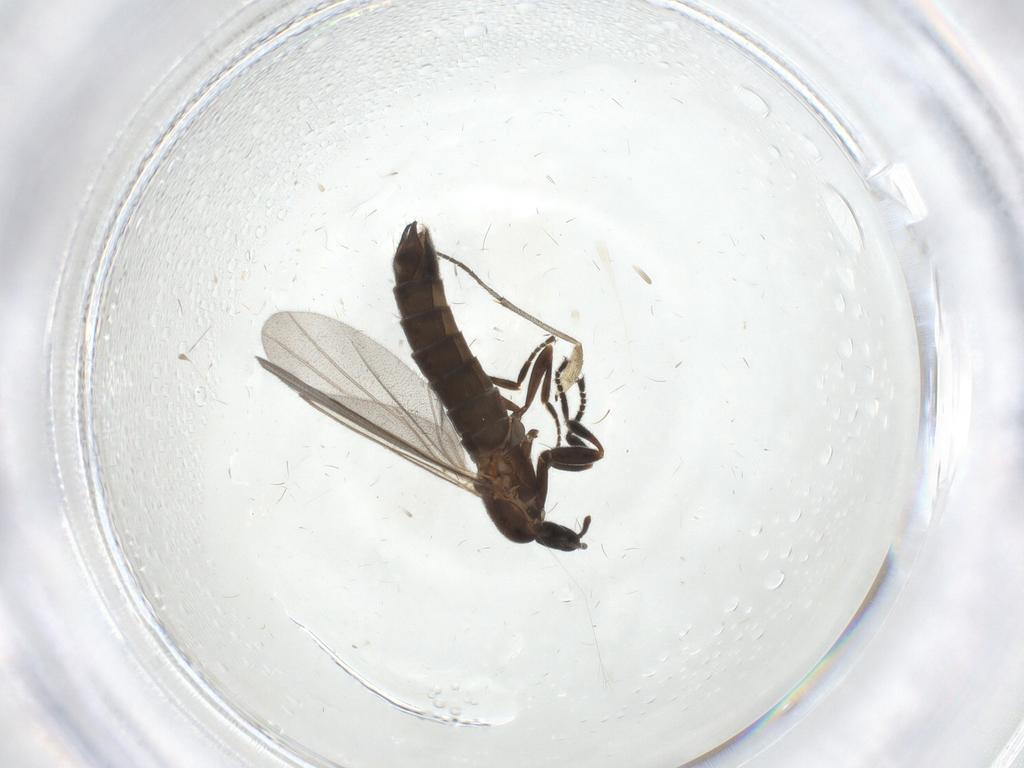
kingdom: Animalia
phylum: Arthropoda
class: Insecta
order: Diptera
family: Scatopsidae
